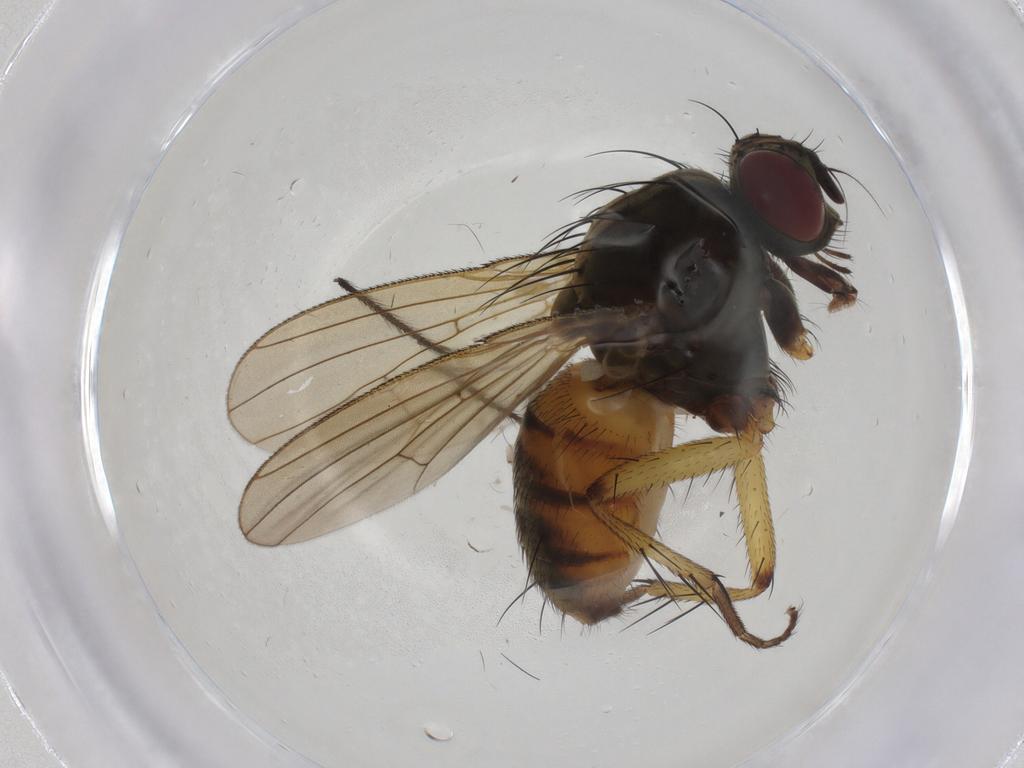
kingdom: Animalia
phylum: Arthropoda
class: Insecta
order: Diptera
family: Muscidae
